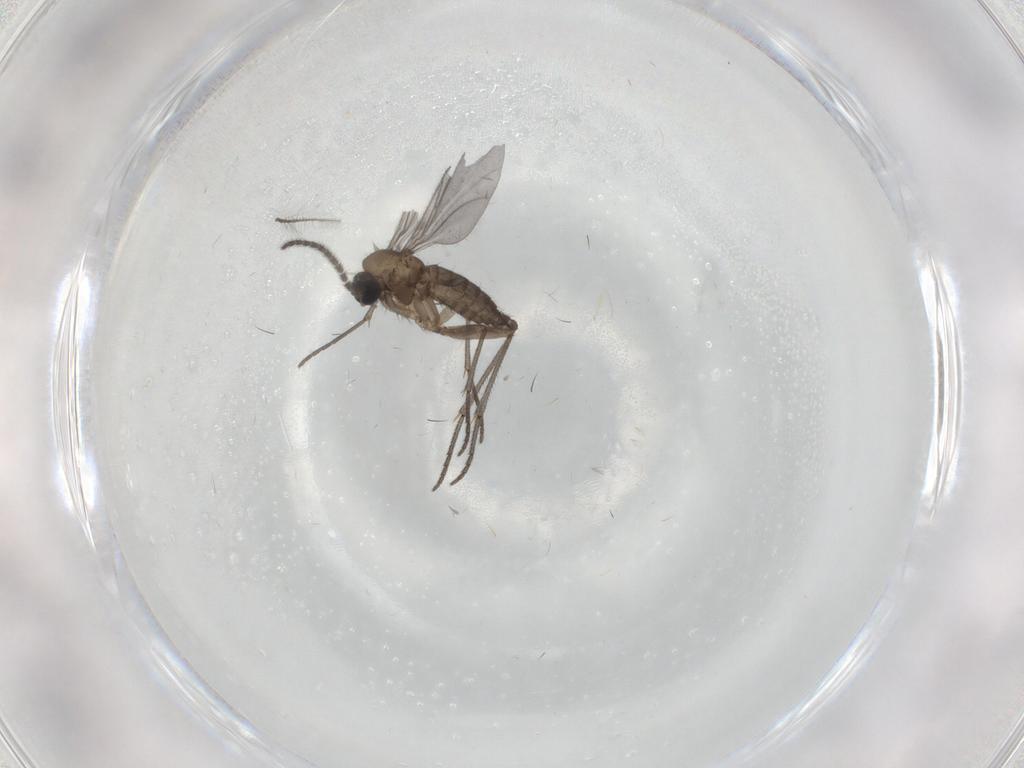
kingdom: Animalia
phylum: Arthropoda
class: Insecta
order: Diptera
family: Sciaridae
